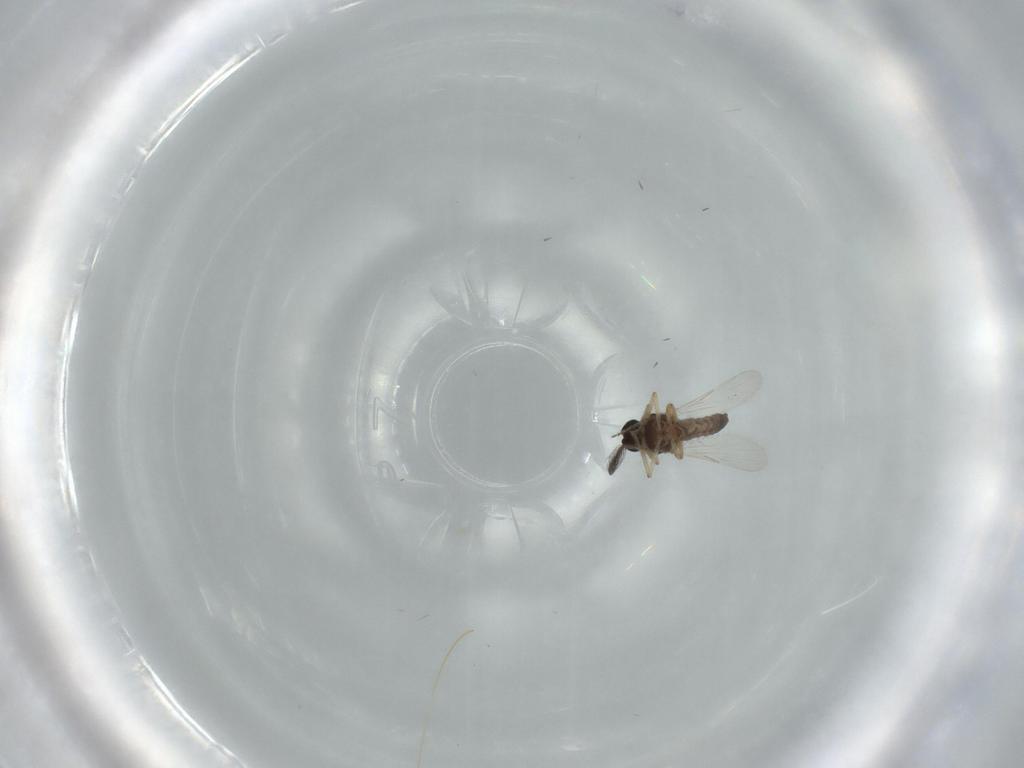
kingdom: Animalia
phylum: Arthropoda
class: Insecta
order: Diptera
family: Ceratopogonidae
